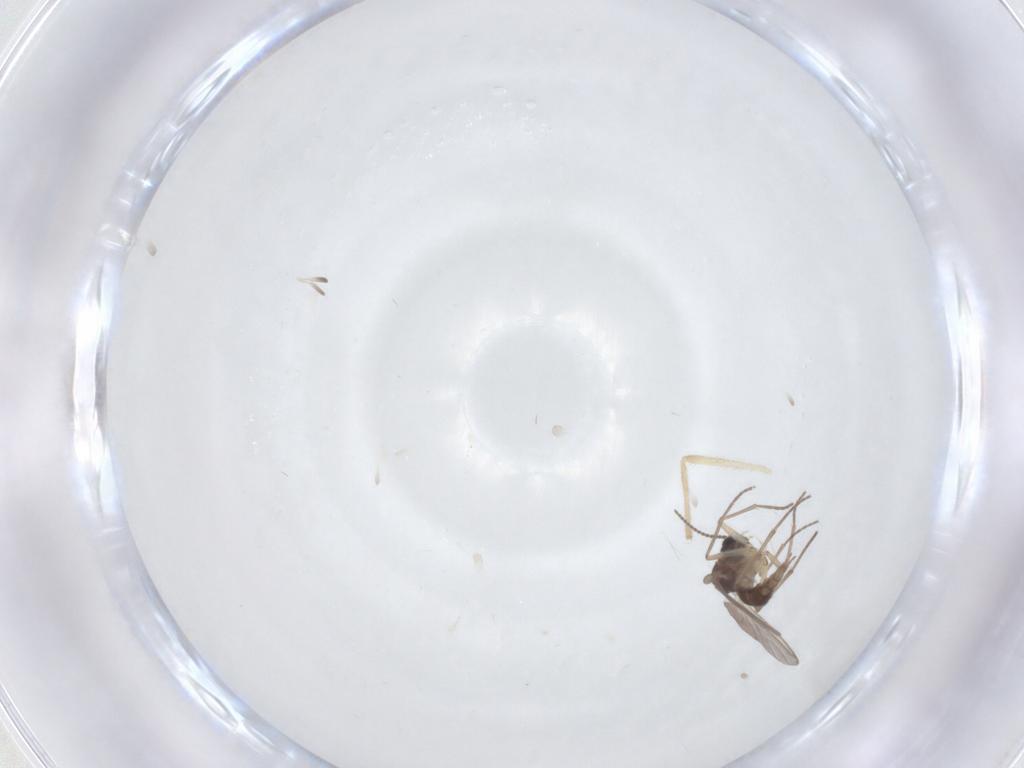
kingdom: Animalia
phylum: Arthropoda
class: Insecta
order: Diptera
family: Sciaridae
